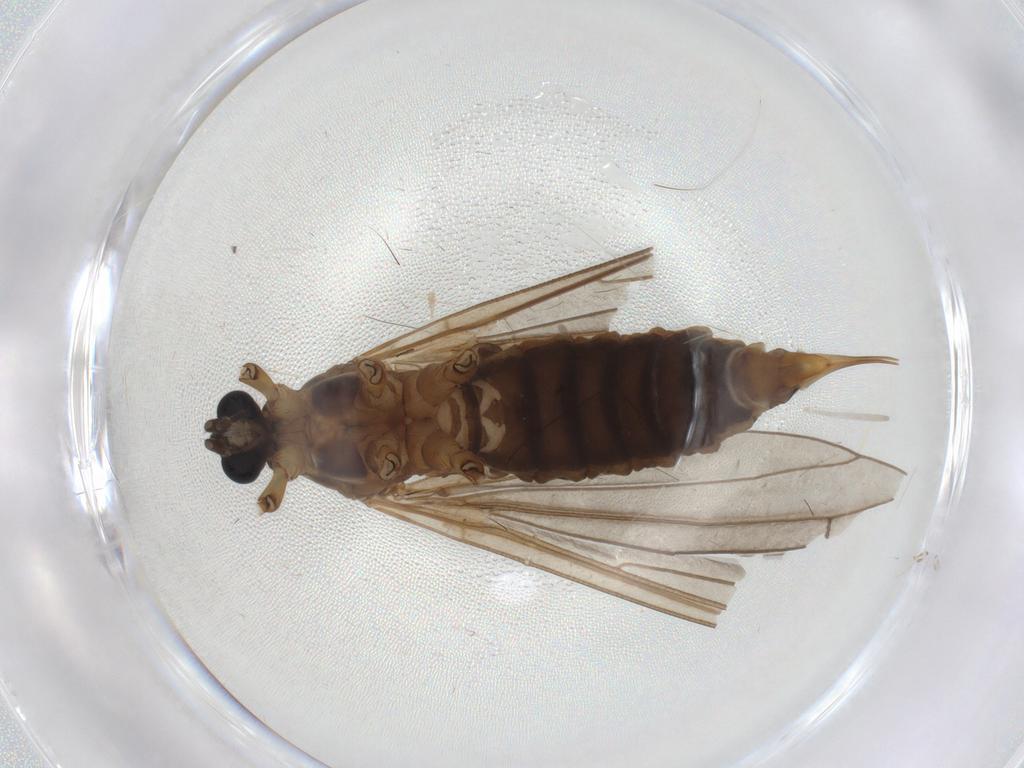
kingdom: Animalia
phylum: Arthropoda
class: Insecta
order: Diptera
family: Limoniidae
